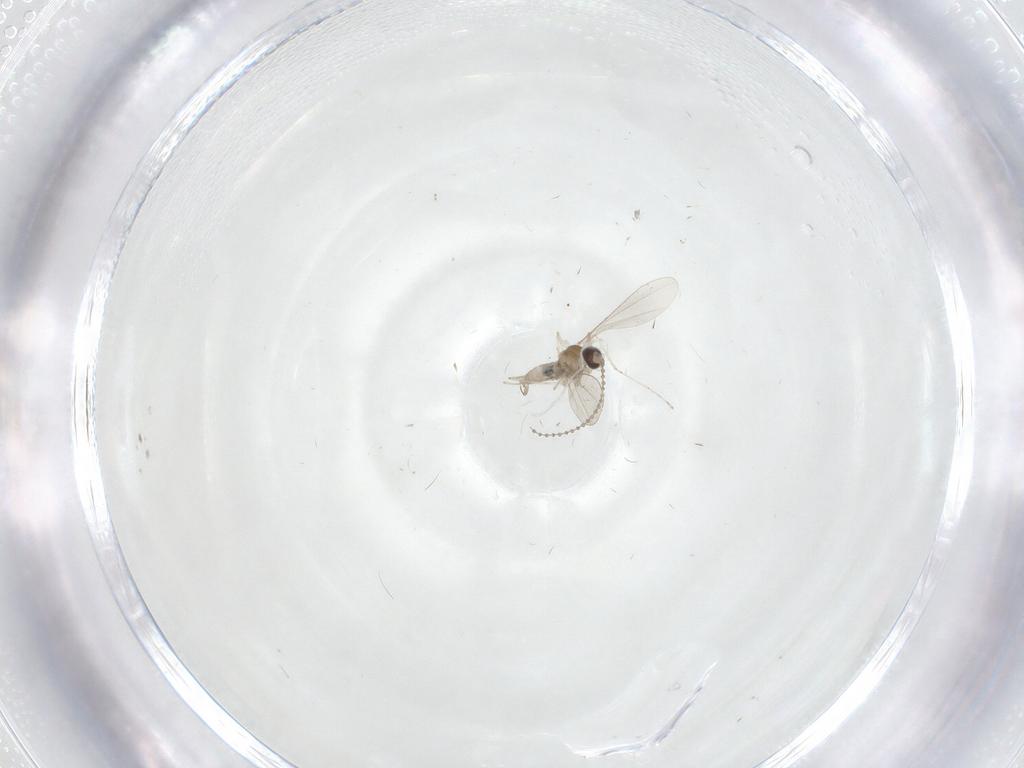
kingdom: Animalia
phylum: Arthropoda
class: Insecta
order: Diptera
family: Cecidomyiidae
